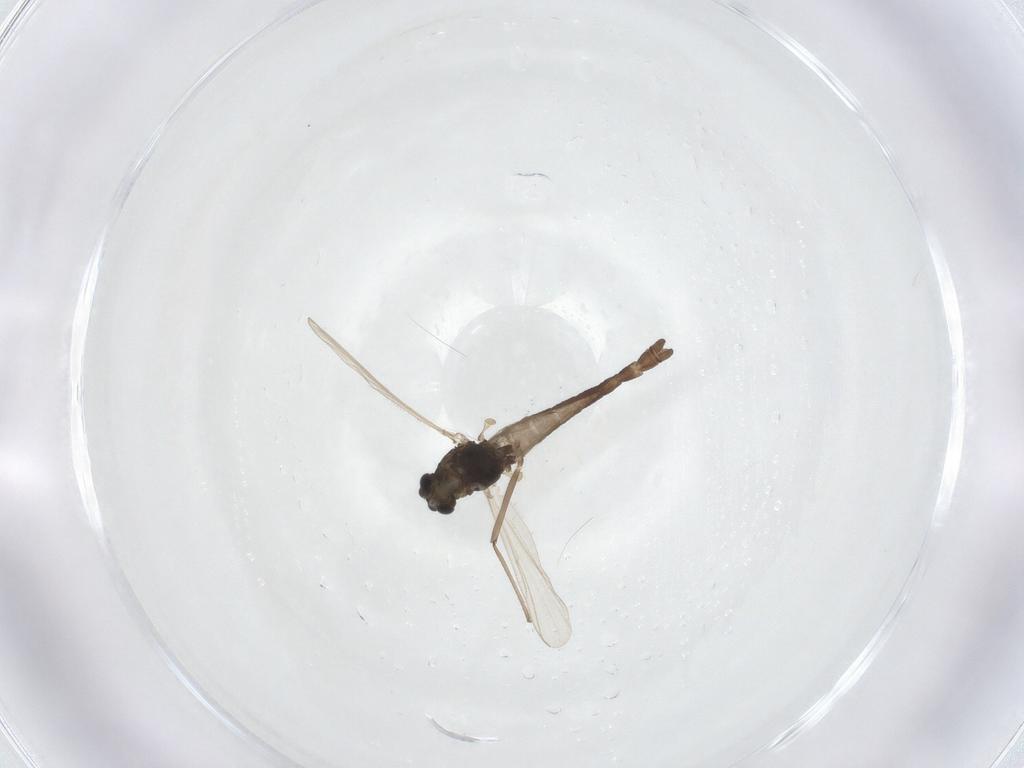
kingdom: Animalia
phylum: Arthropoda
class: Insecta
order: Diptera
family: Chironomidae
